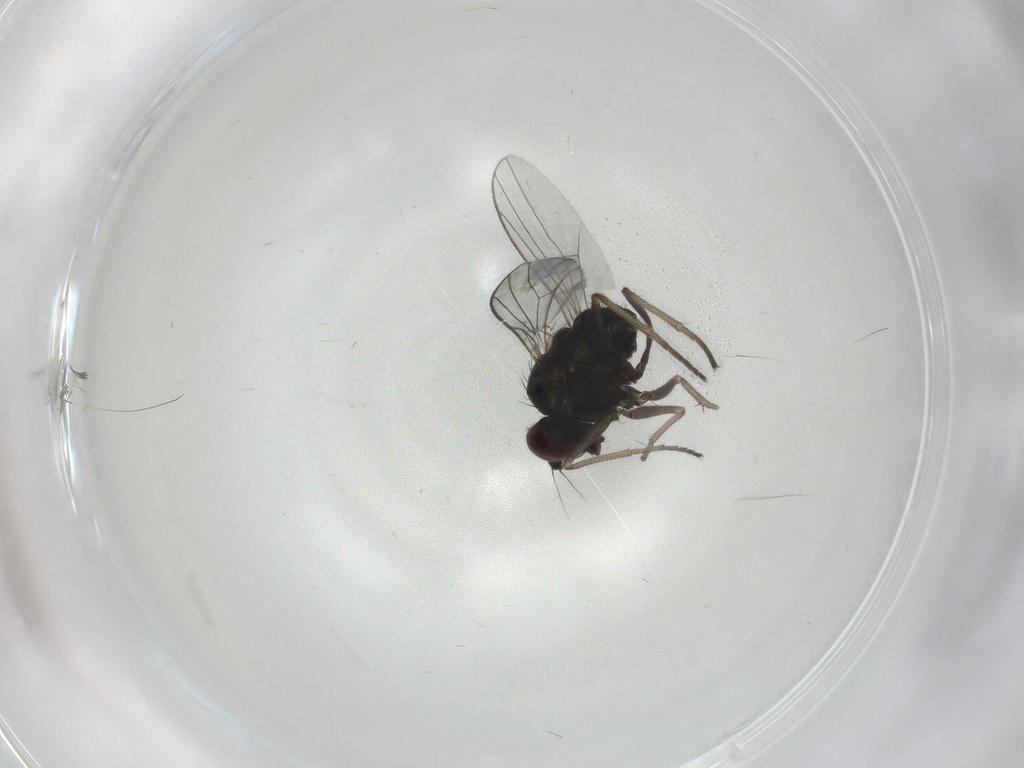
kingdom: Animalia
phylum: Arthropoda
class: Insecta
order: Diptera
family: Dolichopodidae
